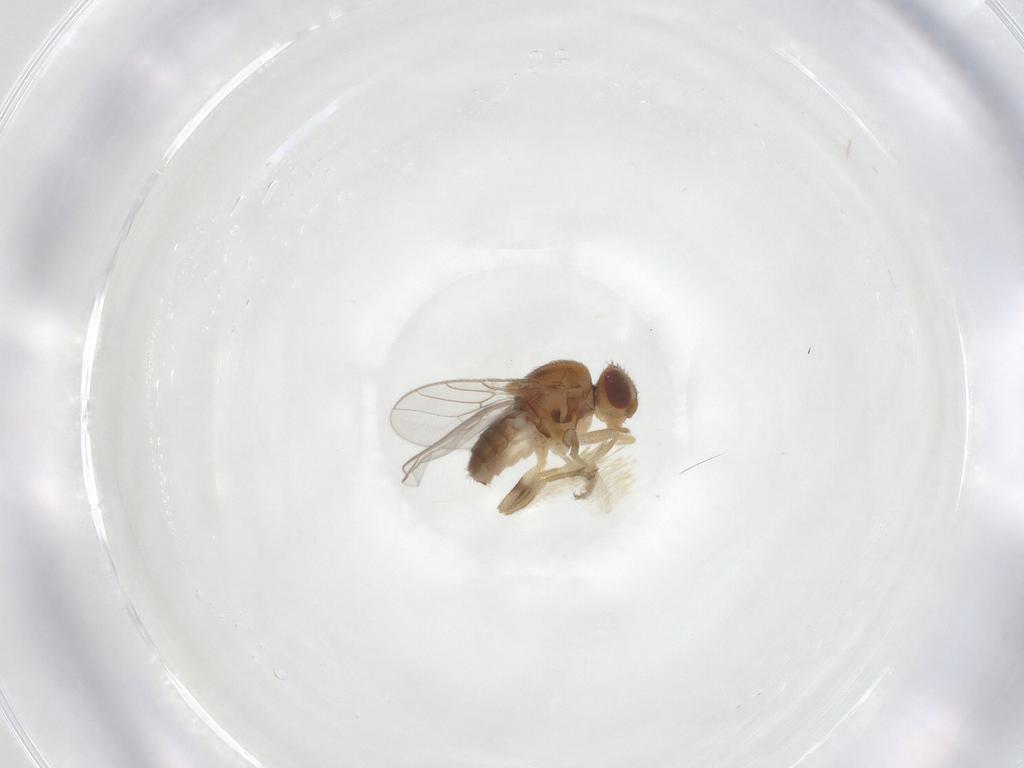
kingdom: Animalia
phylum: Arthropoda
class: Insecta
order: Diptera
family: Chloropidae
